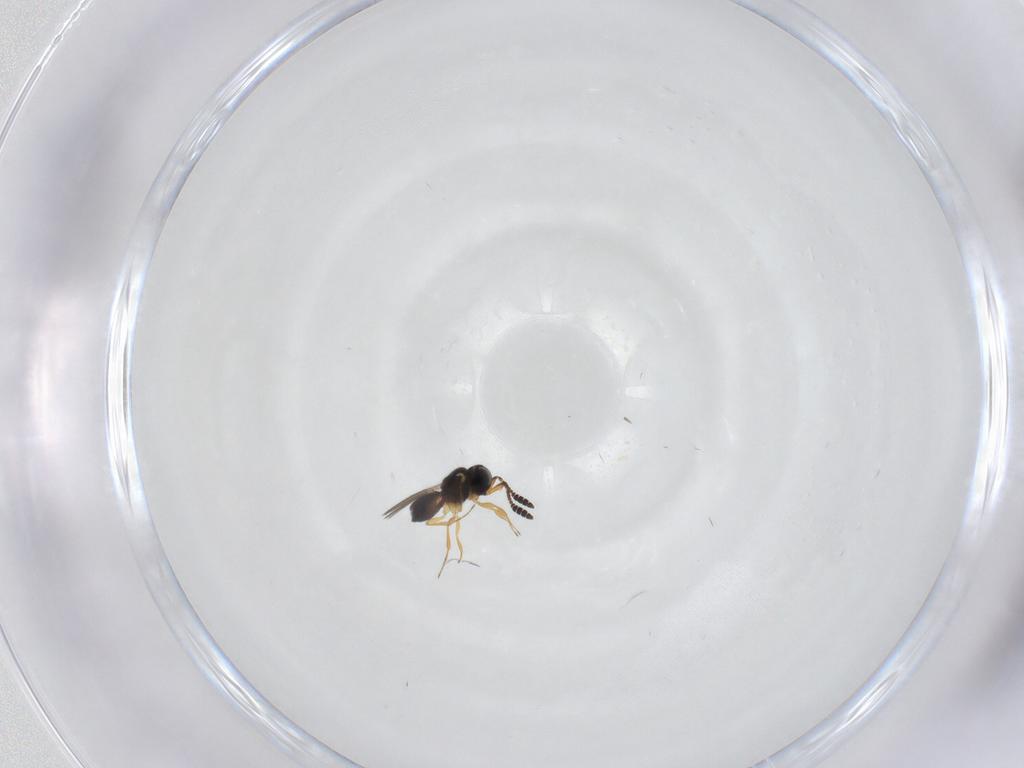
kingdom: Animalia
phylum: Arthropoda
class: Insecta
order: Hymenoptera
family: Scelionidae
